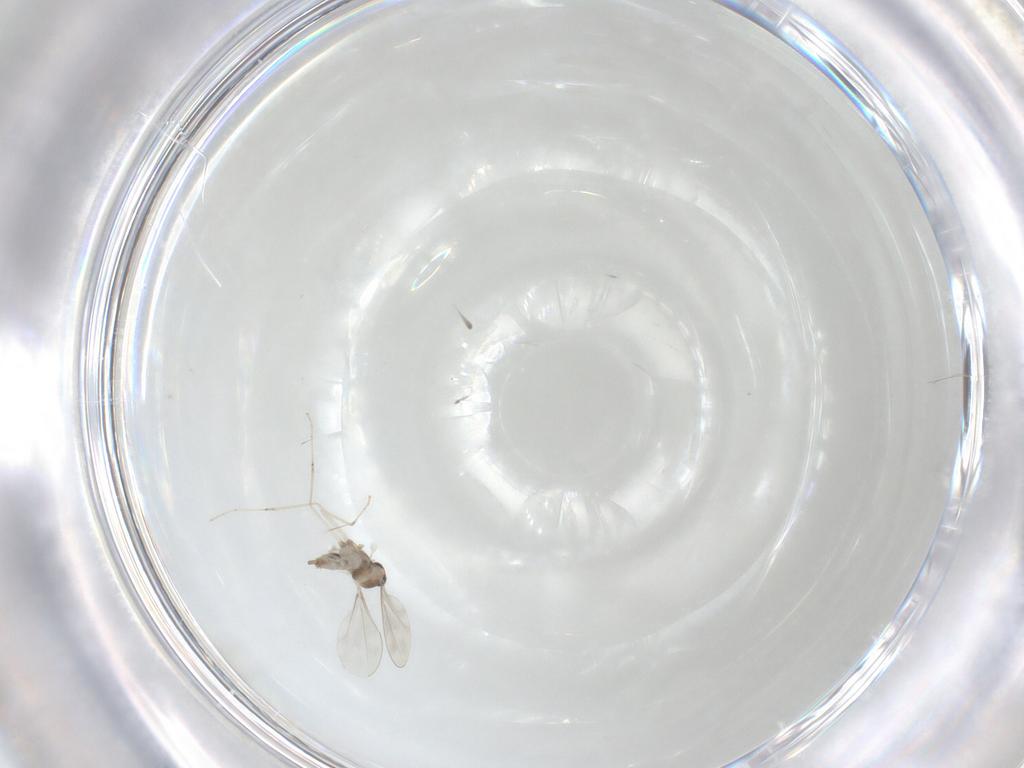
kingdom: Animalia
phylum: Arthropoda
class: Insecta
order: Diptera
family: Cecidomyiidae
